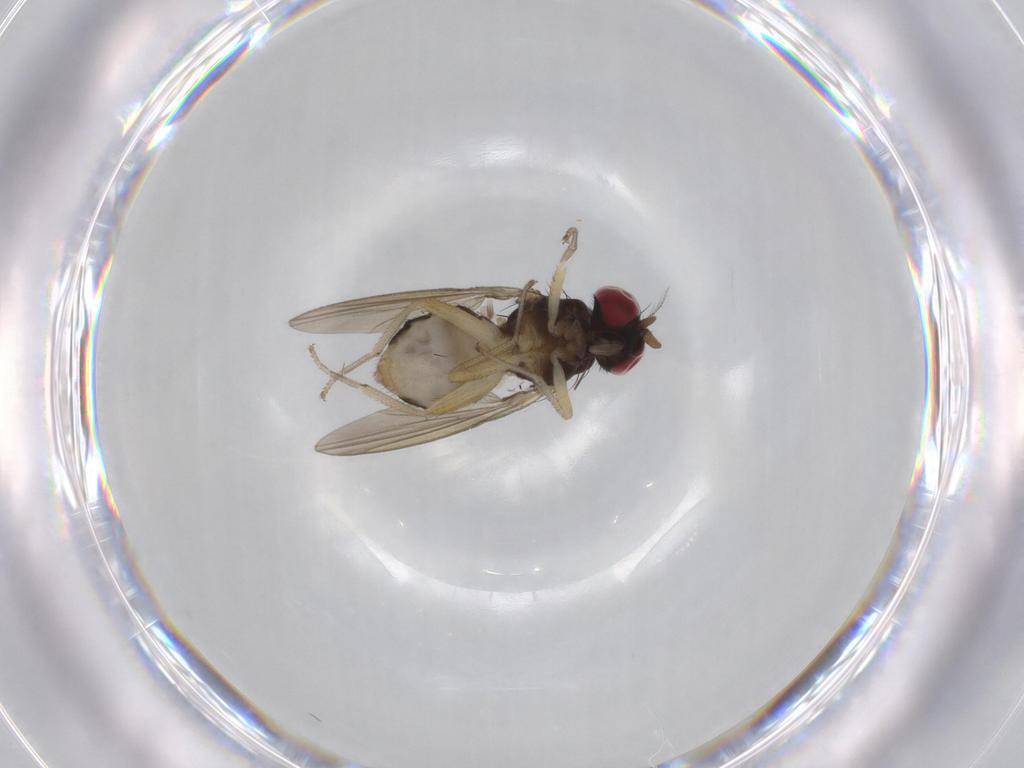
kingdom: Animalia
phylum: Arthropoda
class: Insecta
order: Diptera
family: Lauxaniidae
